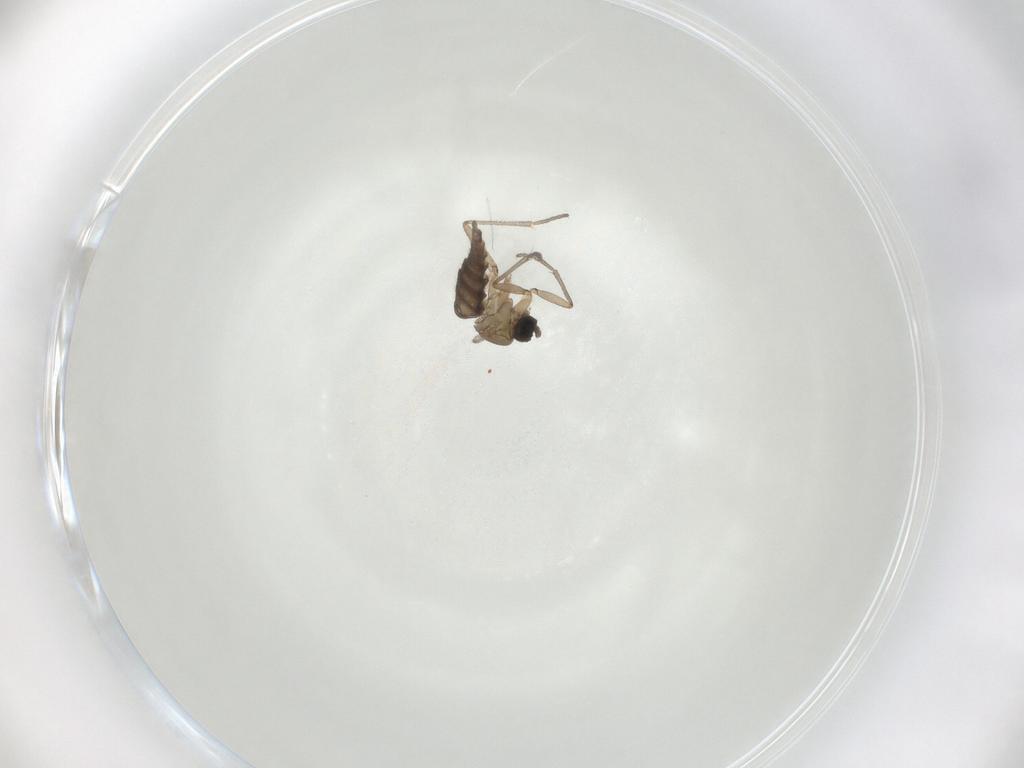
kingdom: Animalia
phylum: Arthropoda
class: Insecta
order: Diptera
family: Sciaridae
